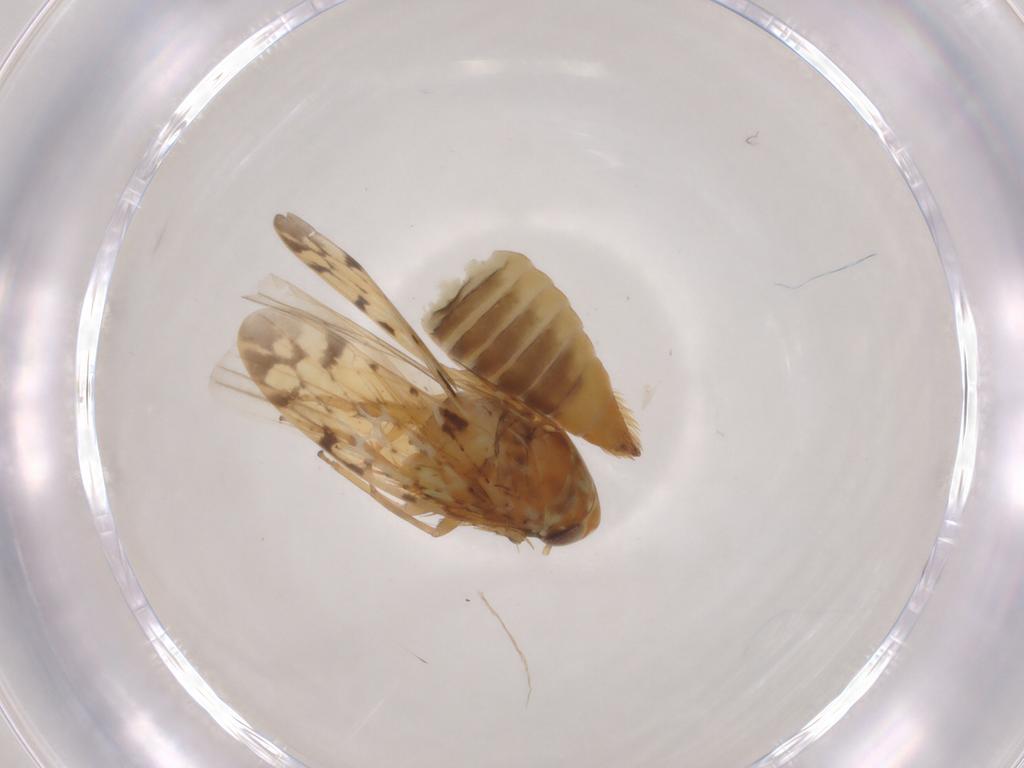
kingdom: Animalia
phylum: Arthropoda
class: Insecta
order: Hemiptera
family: Cicadellidae
